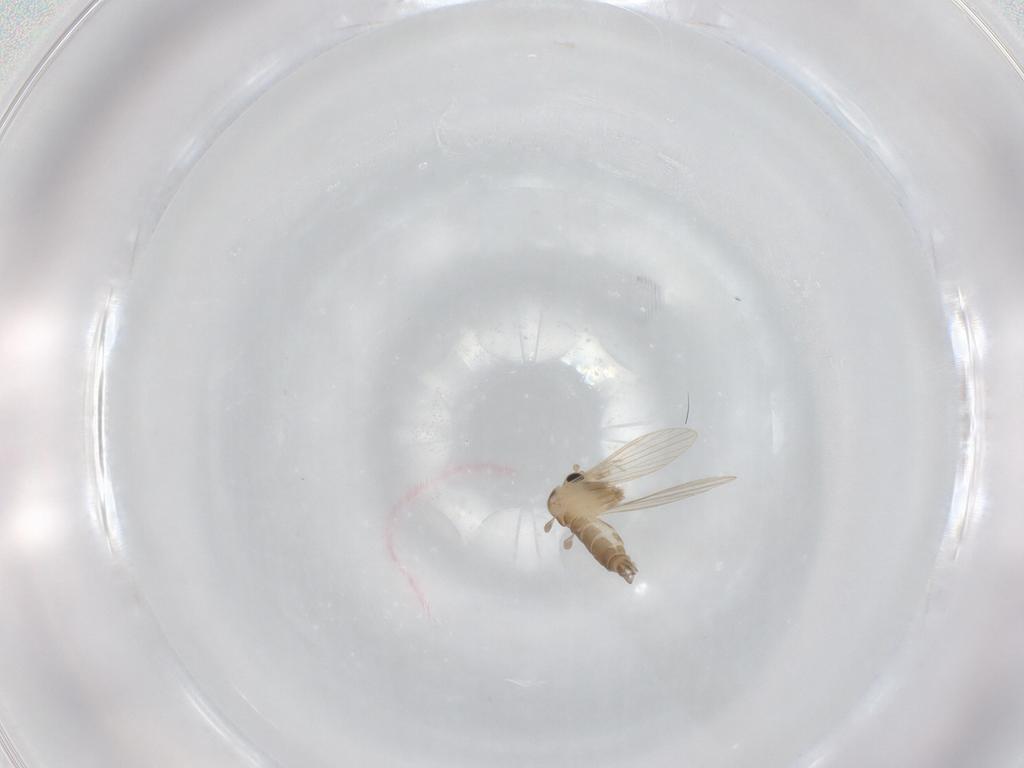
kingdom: Animalia
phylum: Arthropoda
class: Insecta
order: Diptera
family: Psychodidae
